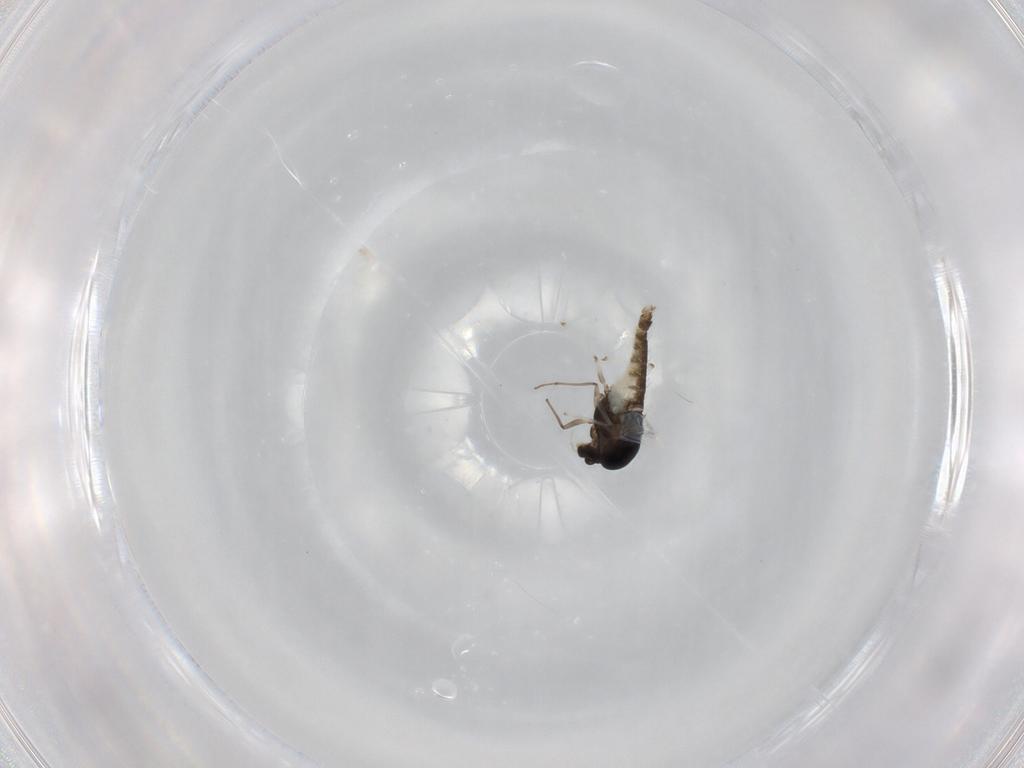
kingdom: Animalia
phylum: Arthropoda
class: Insecta
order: Diptera
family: Chironomidae
